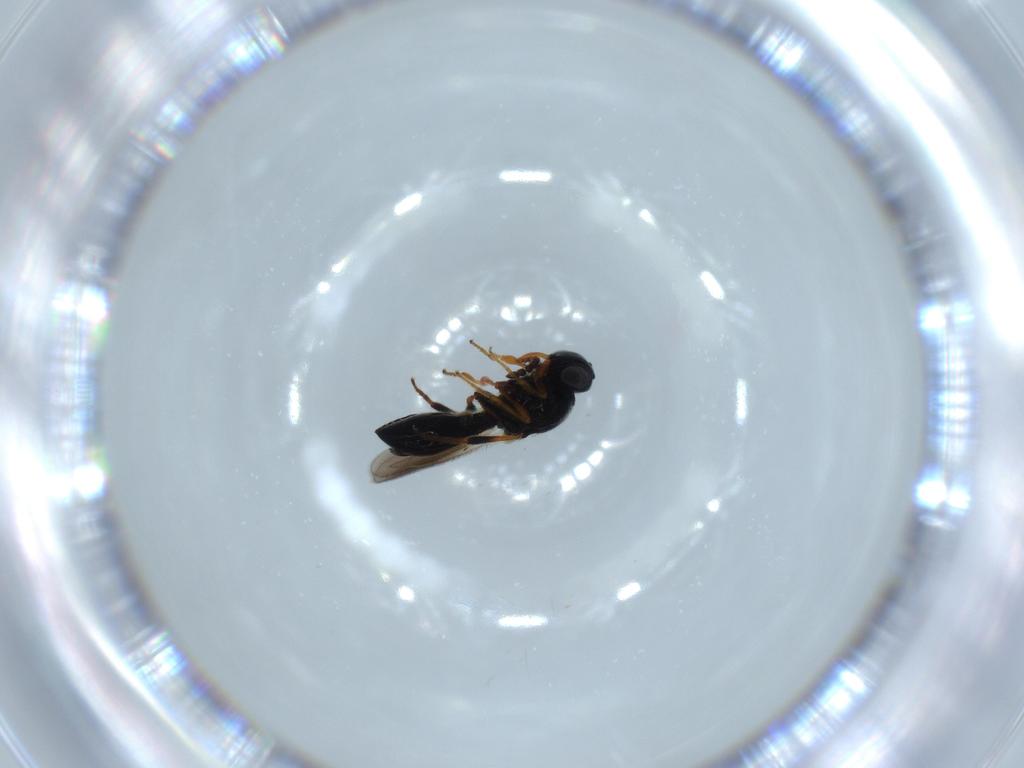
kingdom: Animalia
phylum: Arthropoda
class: Insecta
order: Hymenoptera
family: Platygastridae
